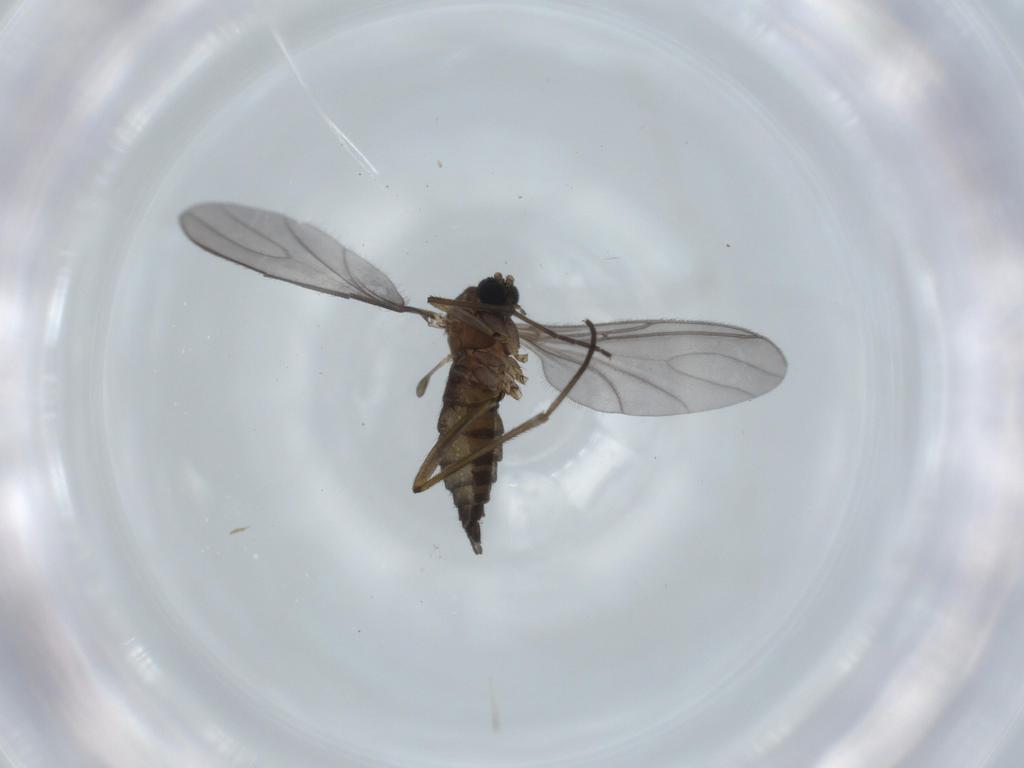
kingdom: Animalia
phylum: Arthropoda
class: Insecta
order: Diptera
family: Sciaridae
